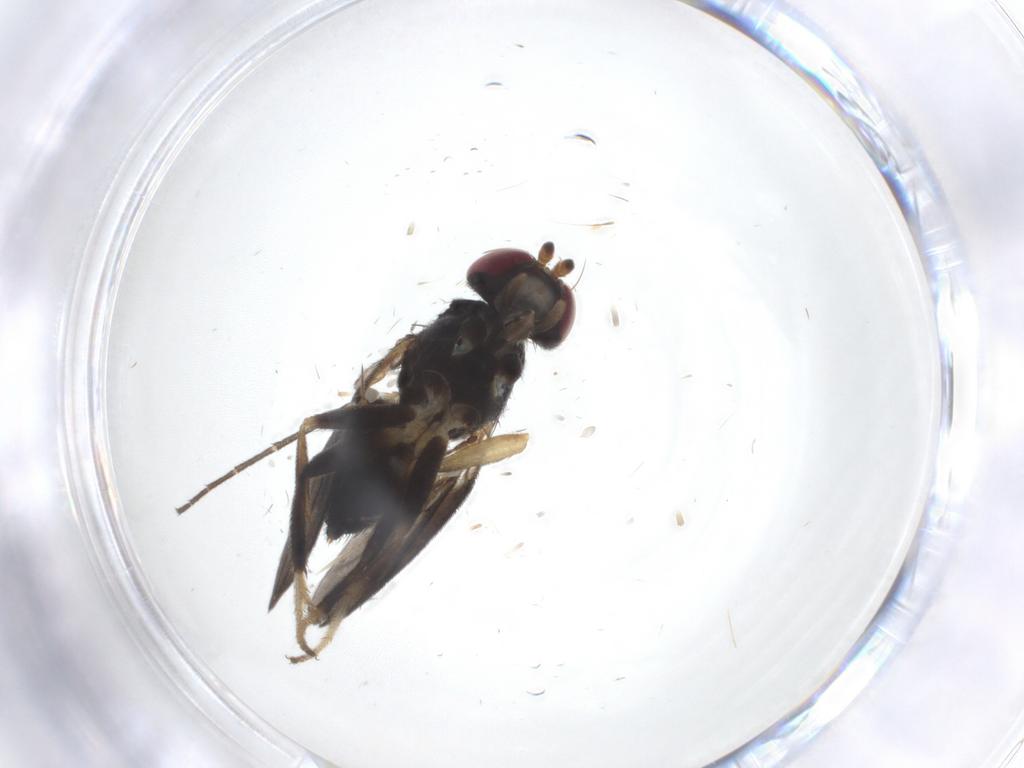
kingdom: Animalia
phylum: Arthropoda
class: Insecta
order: Diptera
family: Clusiidae
